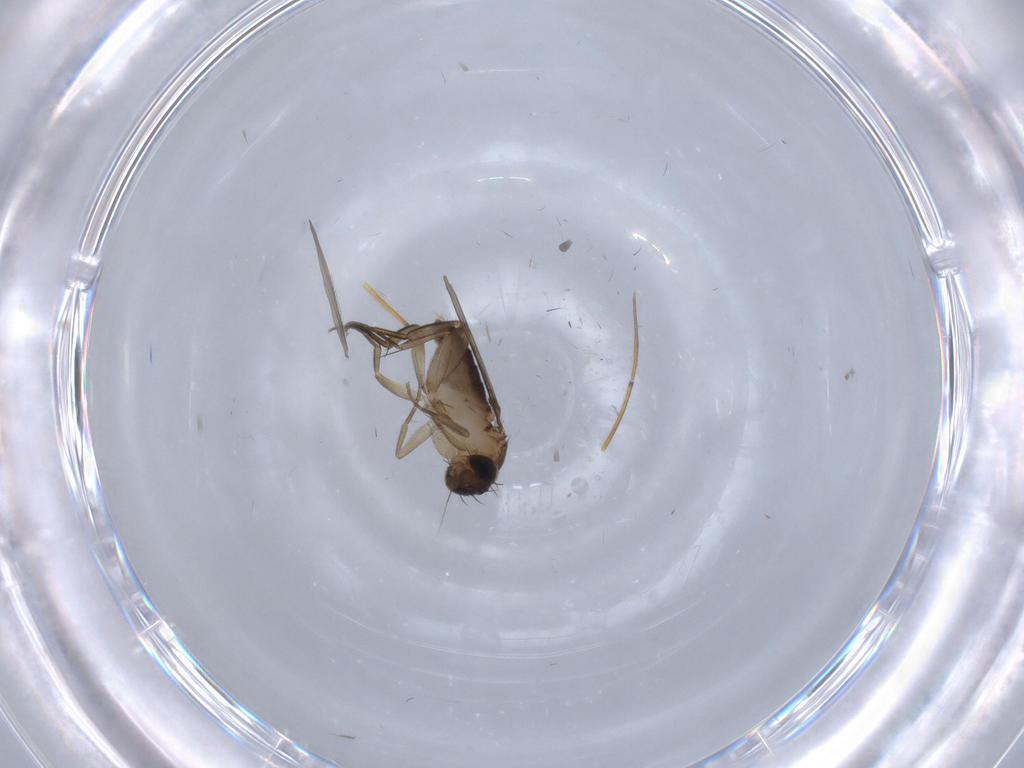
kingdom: Animalia
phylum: Arthropoda
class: Insecta
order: Diptera
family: Phoridae
